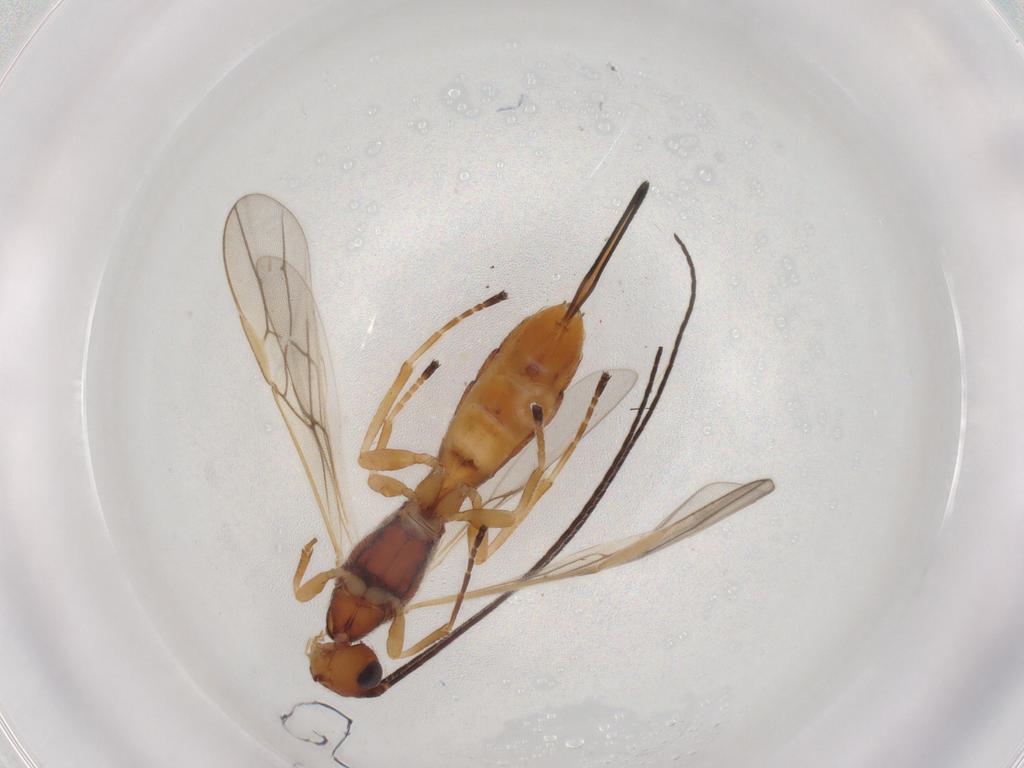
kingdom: Animalia
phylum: Arthropoda
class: Insecta
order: Hymenoptera
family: Braconidae
